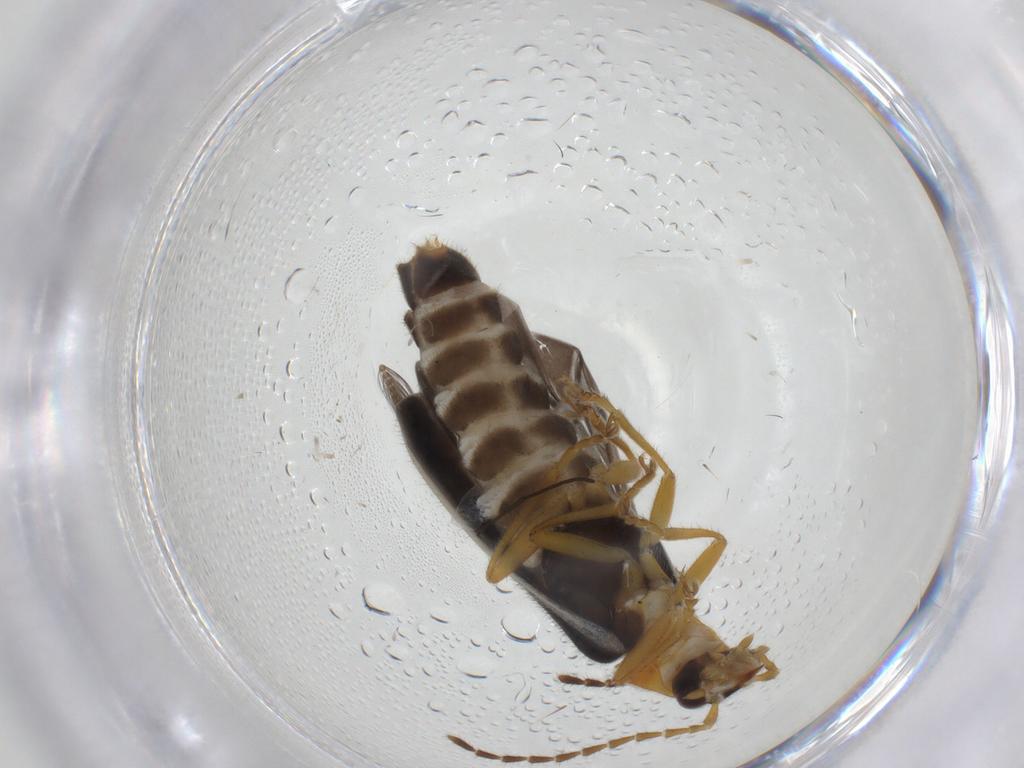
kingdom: Animalia
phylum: Arthropoda
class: Insecta
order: Coleoptera
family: Cantharidae
